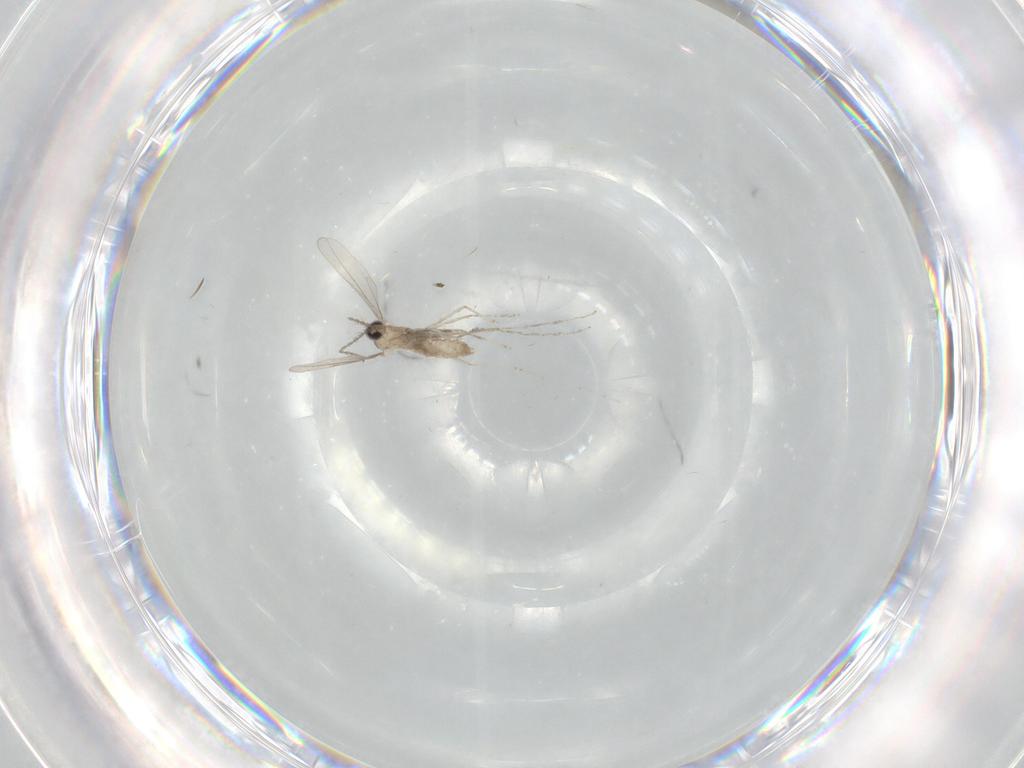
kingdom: Animalia
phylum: Arthropoda
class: Insecta
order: Diptera
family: Cecidomyiidae
